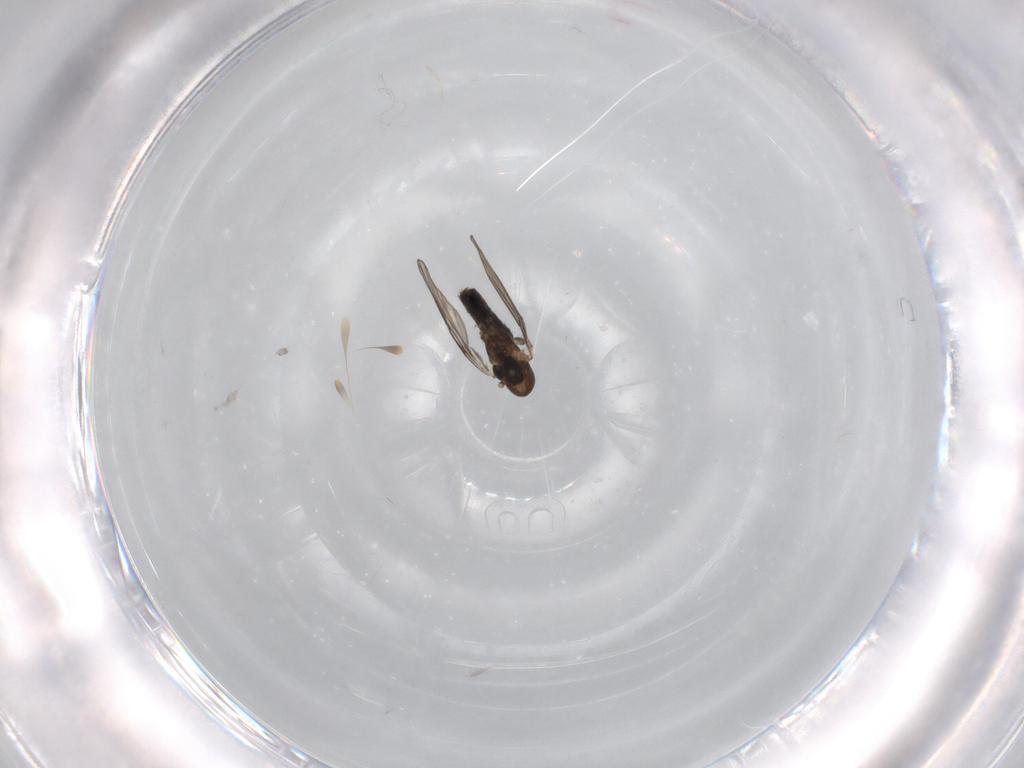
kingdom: Animalia
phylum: Arthropoda
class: Insecta
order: Diptera
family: Psychodidae
